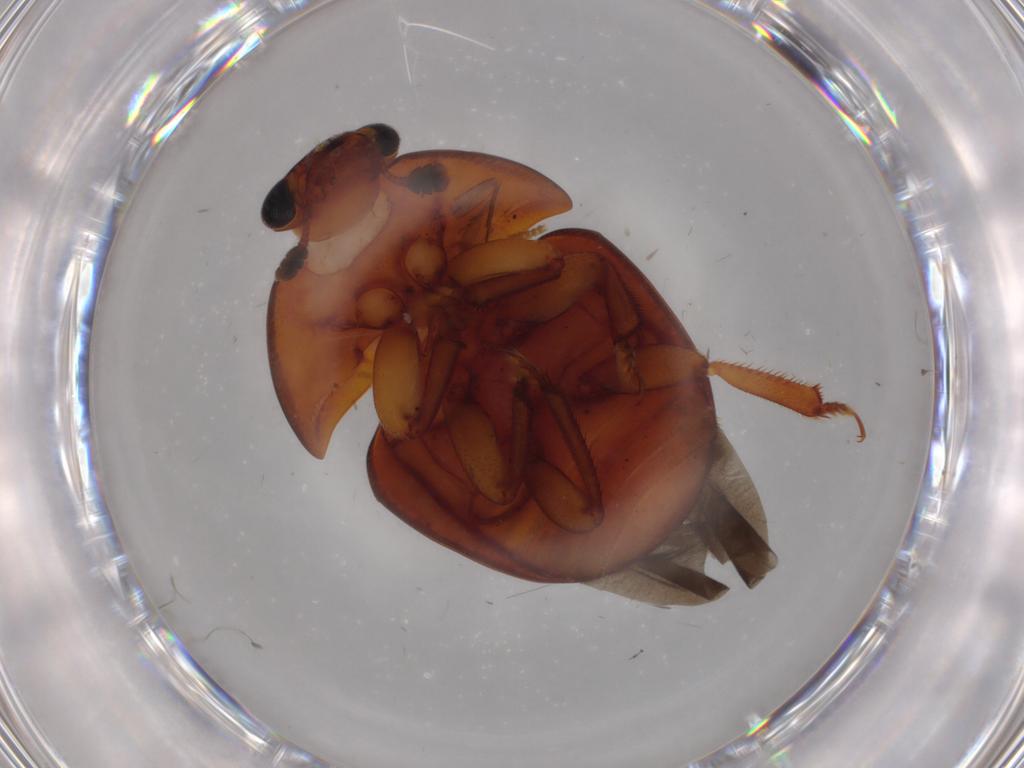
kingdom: Animalia
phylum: Arthropoda
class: Insecta
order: Coleoptera
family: Nitidulidae
